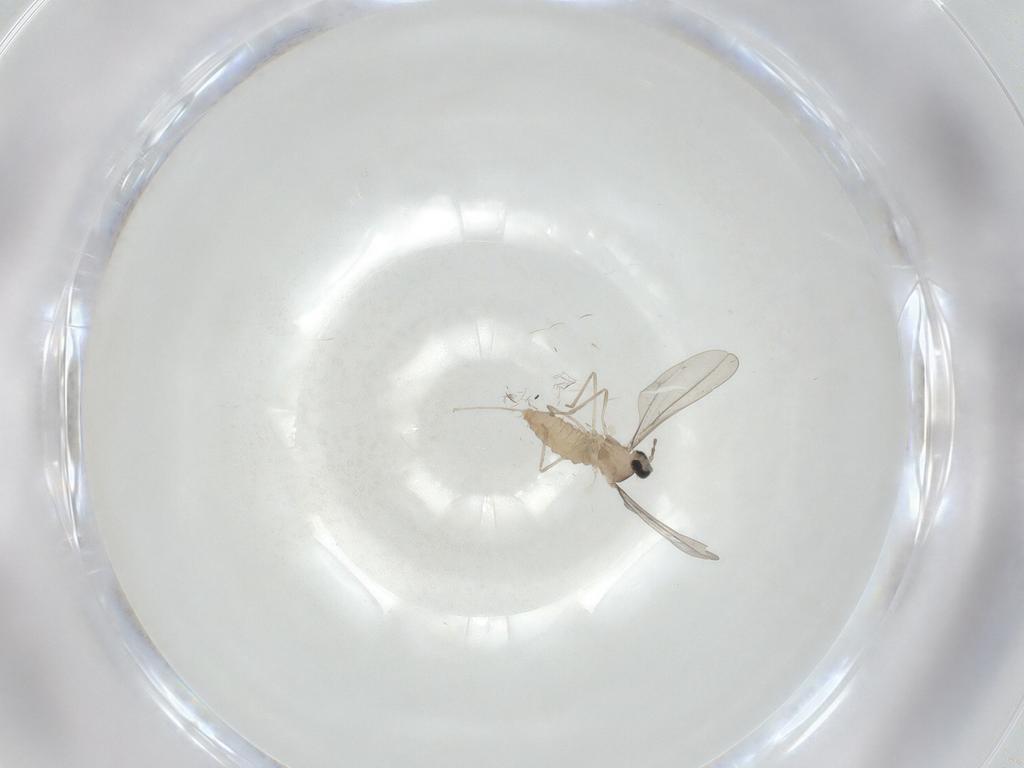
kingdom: Animalia
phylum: Arthropoda
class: Insecta
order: Diptera
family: Cecidomyiidae
